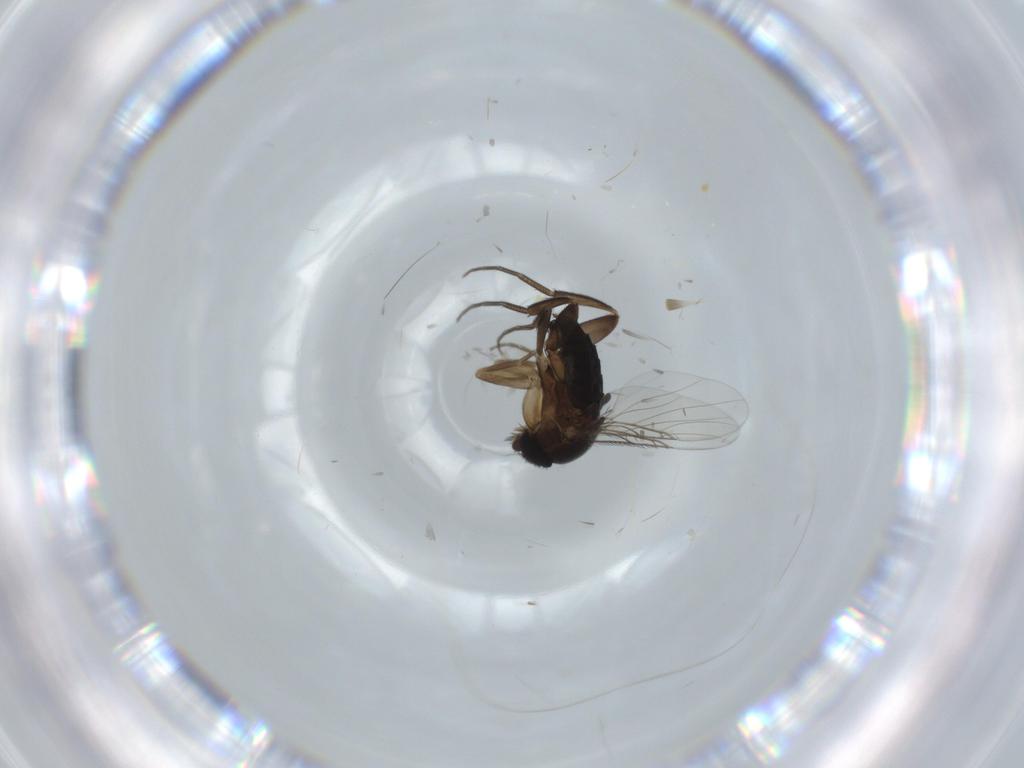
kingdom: Animalia
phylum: Arthropoda
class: Insecta
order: Diptera
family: Phoridae
